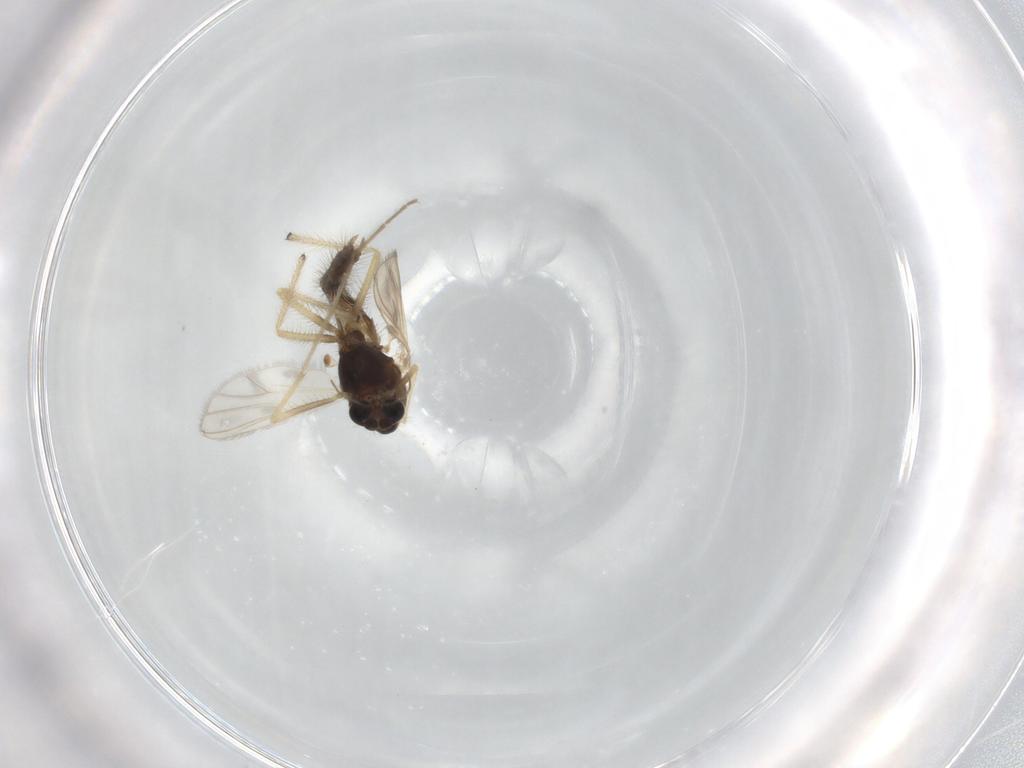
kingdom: Animalia
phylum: Arthropoda
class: Insecta
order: Diptera
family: Chironomidae
